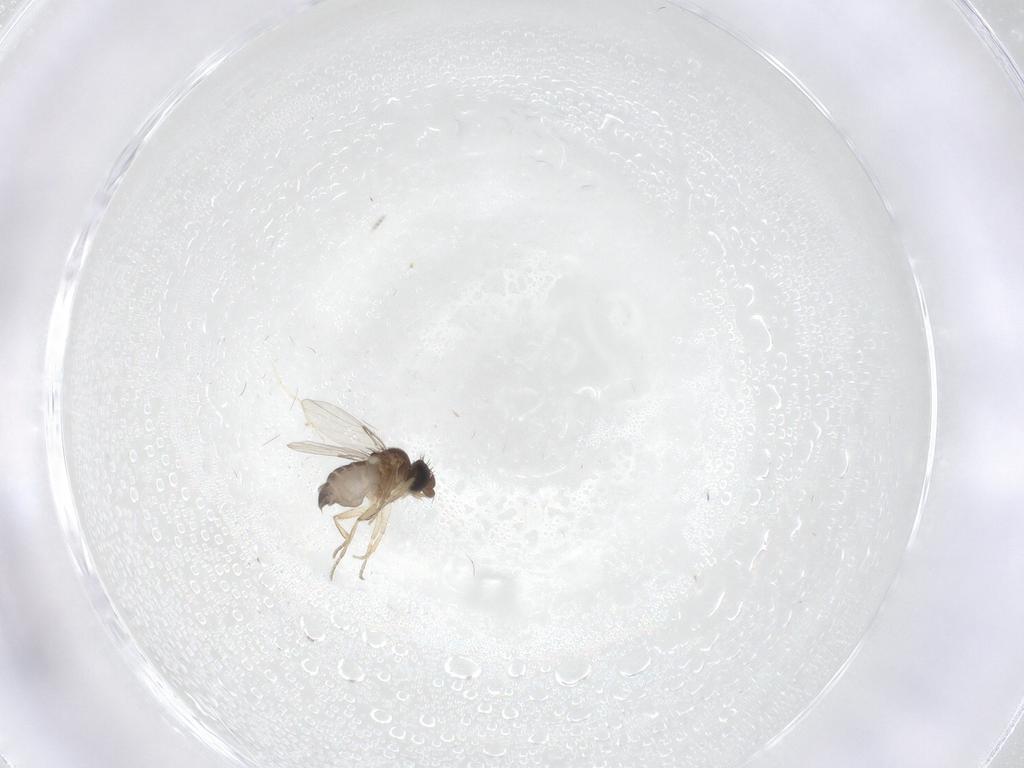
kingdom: Animalia
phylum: Arthropoda
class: Insecta
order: Diptera
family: Phoridae
